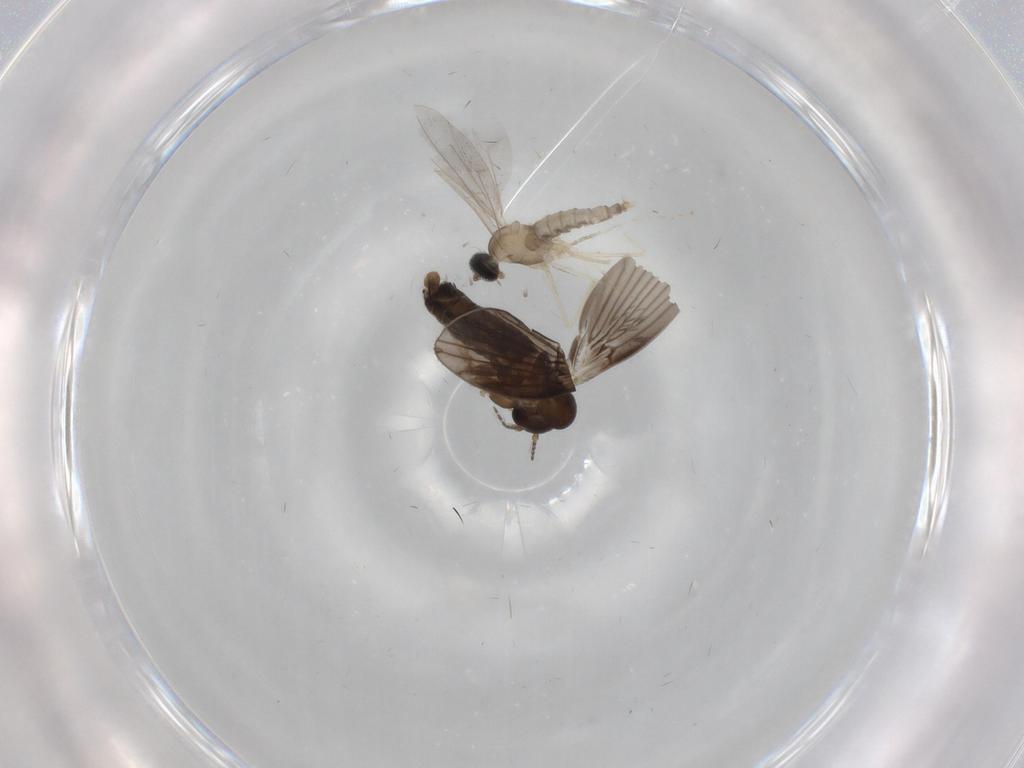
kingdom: Animalia
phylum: Arthropoda
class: Insecta
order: Diptera
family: Cecidomyiidae
